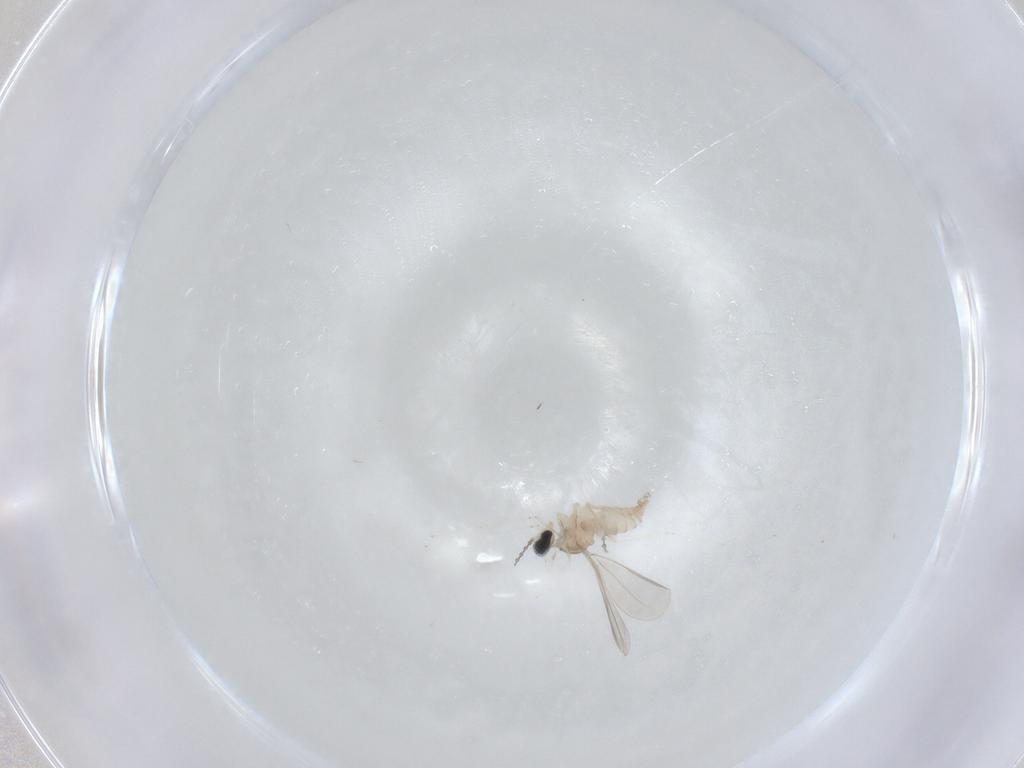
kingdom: Animalia
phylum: Arthropoda
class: Insecta
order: Diptera
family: Cecidomyiidae
